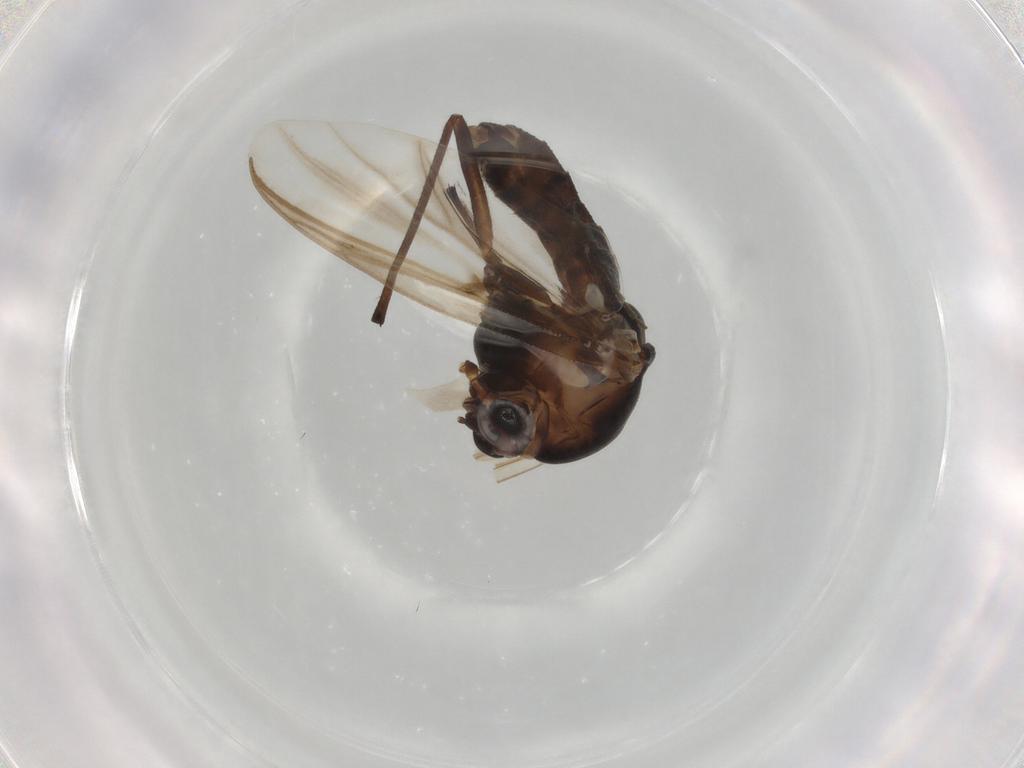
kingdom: Animalia
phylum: Arthropoda
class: Insecta
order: Diptera
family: Chironomidae
